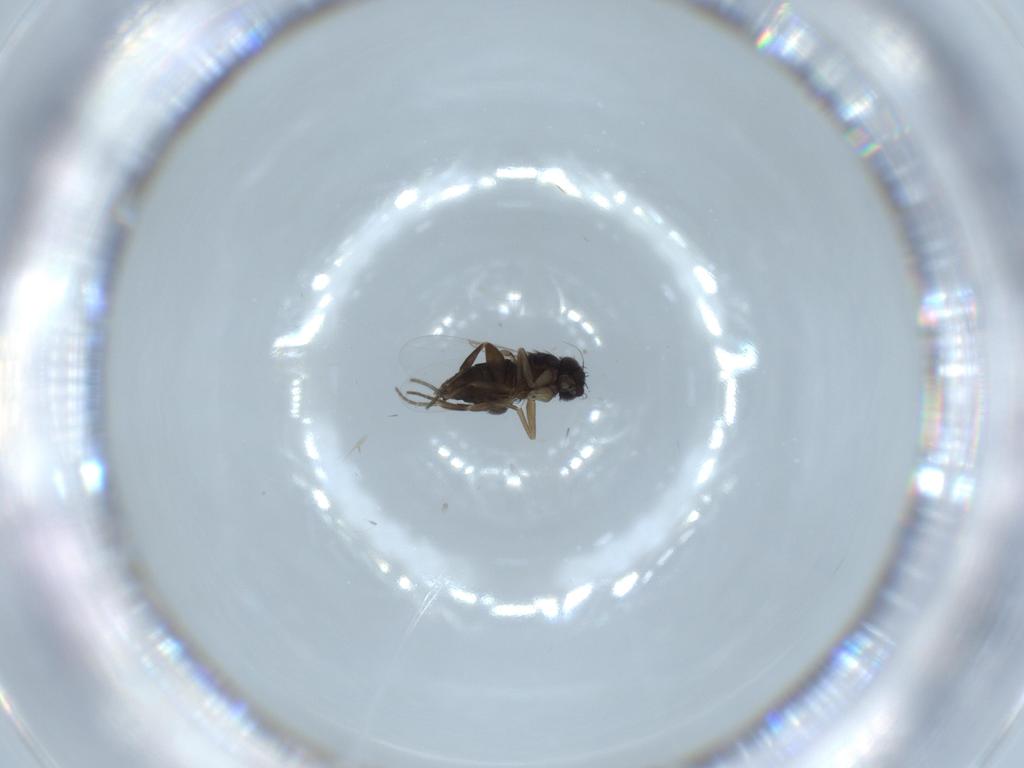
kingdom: Animalia
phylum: Arthropoda
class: Insecta
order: Diptera
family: Phoridae
